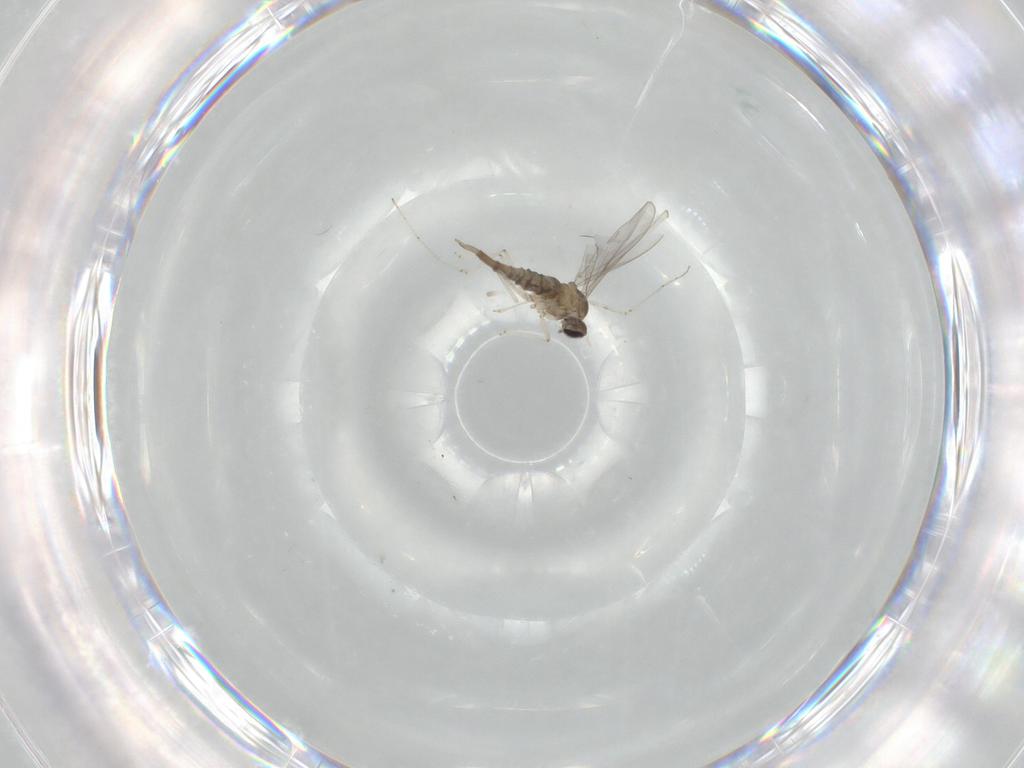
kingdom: Animalia
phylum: Arthropoda
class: Insecta
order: Diptera
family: Cecidomyiidae
